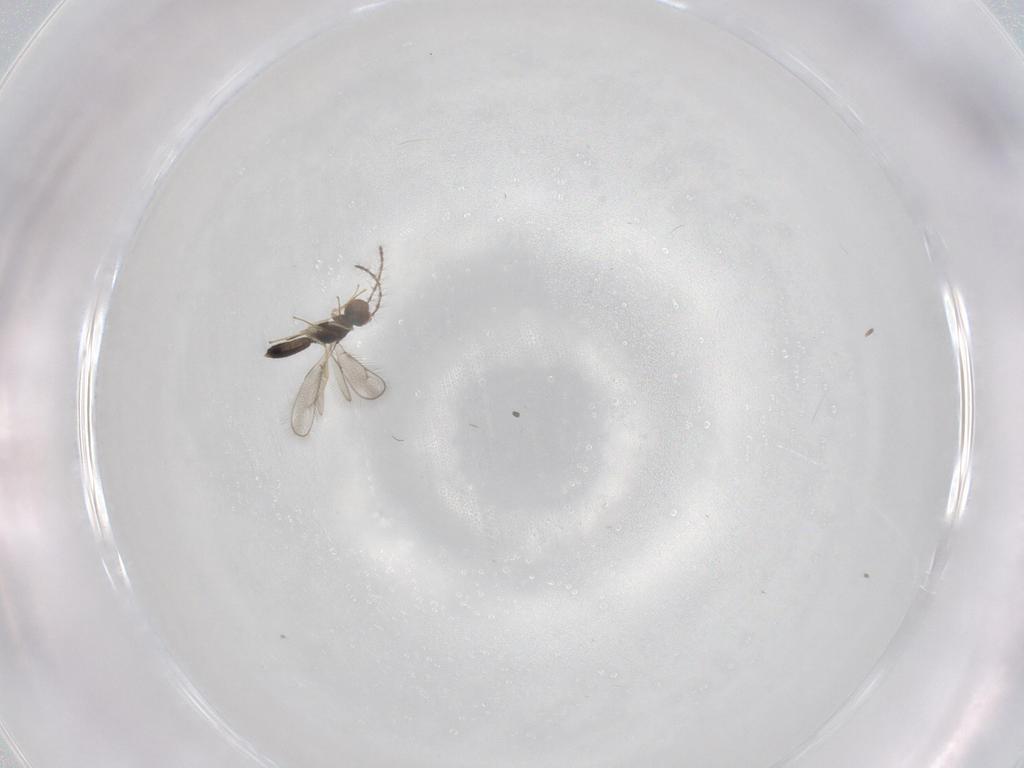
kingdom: Animalia
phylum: Arthropoda
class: Insecta
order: Hymenoptera
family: Pteromalidae
